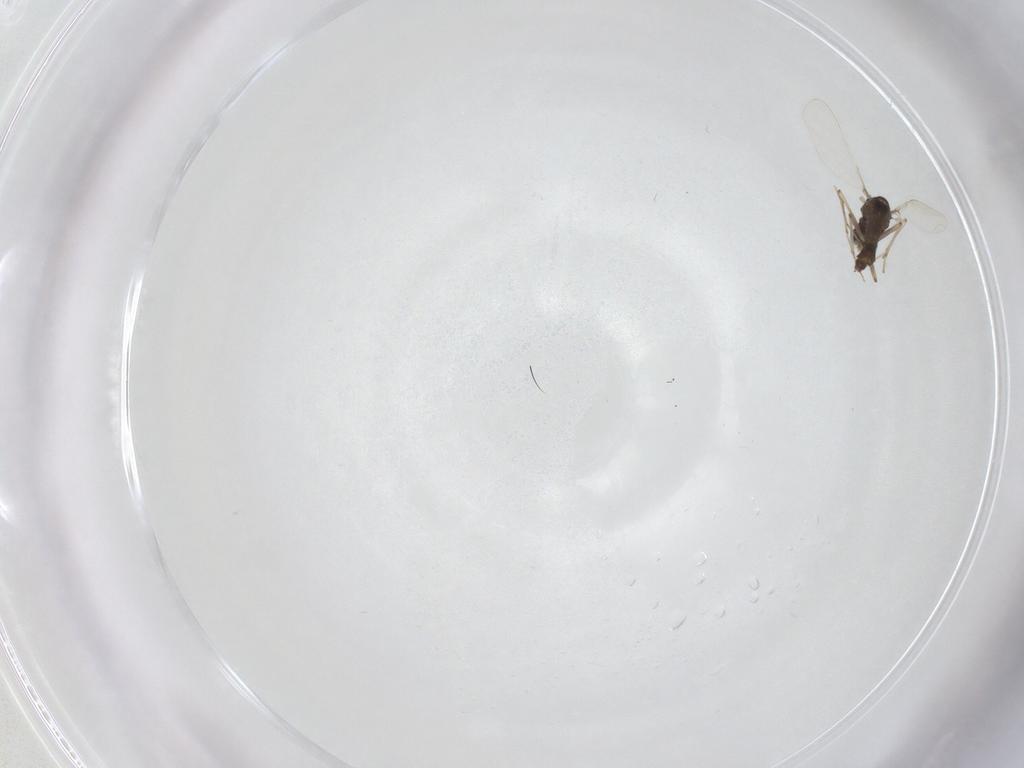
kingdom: Animalia
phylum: Arthropoda
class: Insecta
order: Diptera
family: Chironomidae
